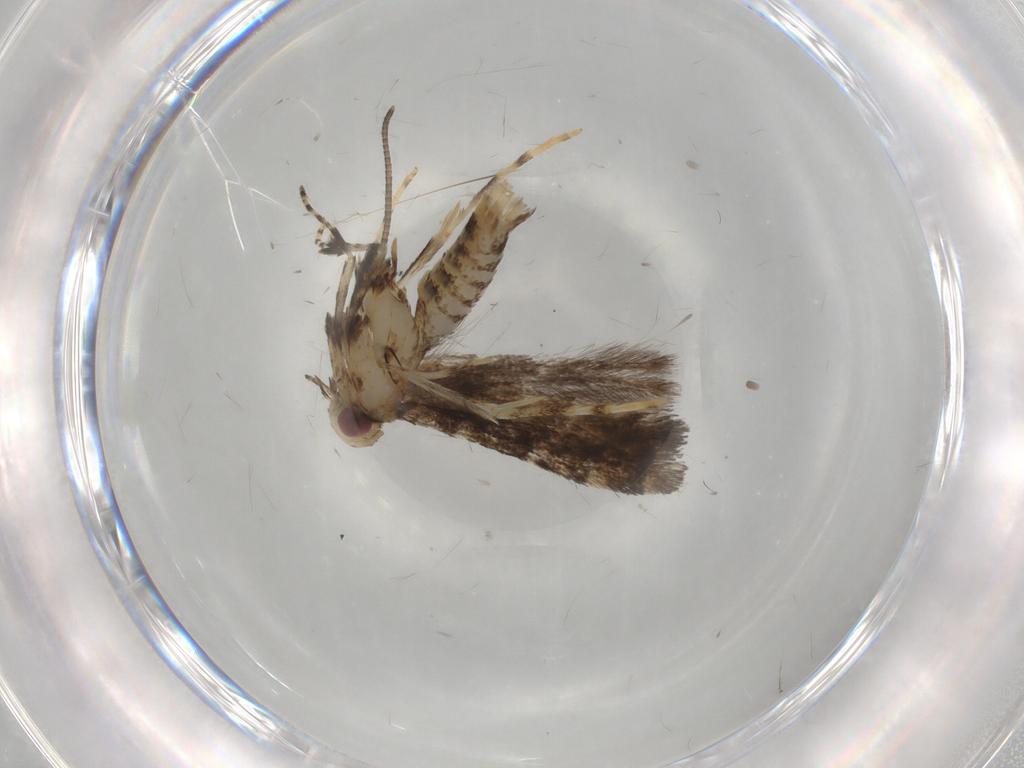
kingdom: Animalia
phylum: Arthropoda
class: Insecta
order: Lepidoptera
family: Gracillariidae
